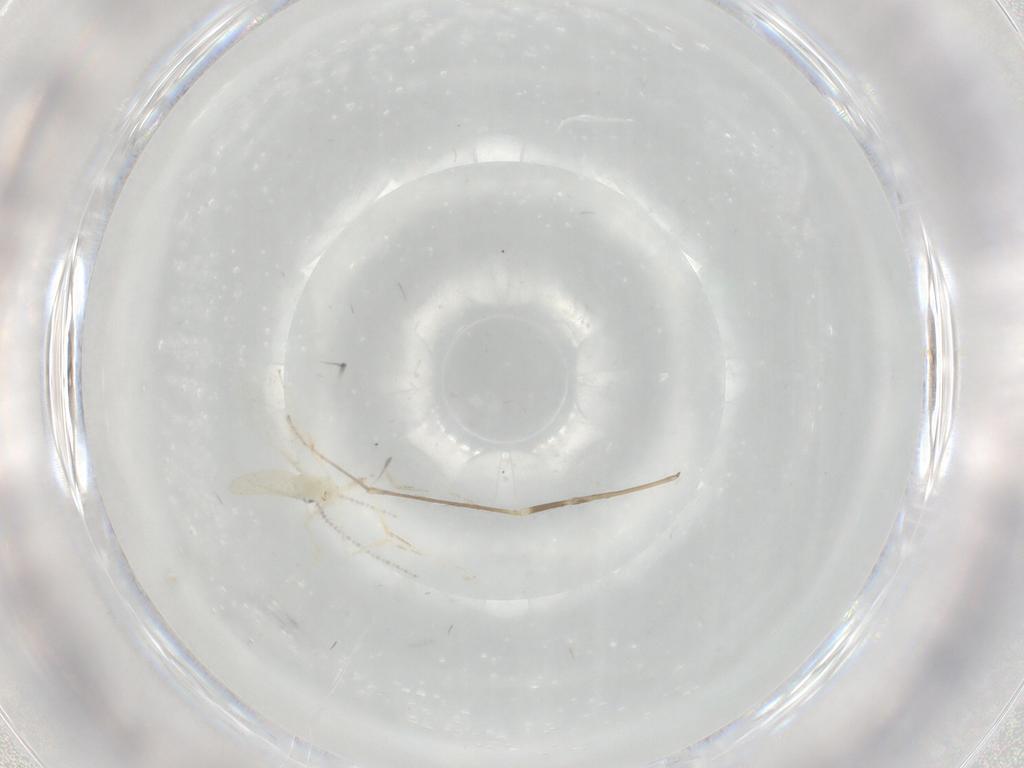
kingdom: Animalia
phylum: Arthropoda
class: Insecta
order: Diptera
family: Cecidomyiidae
